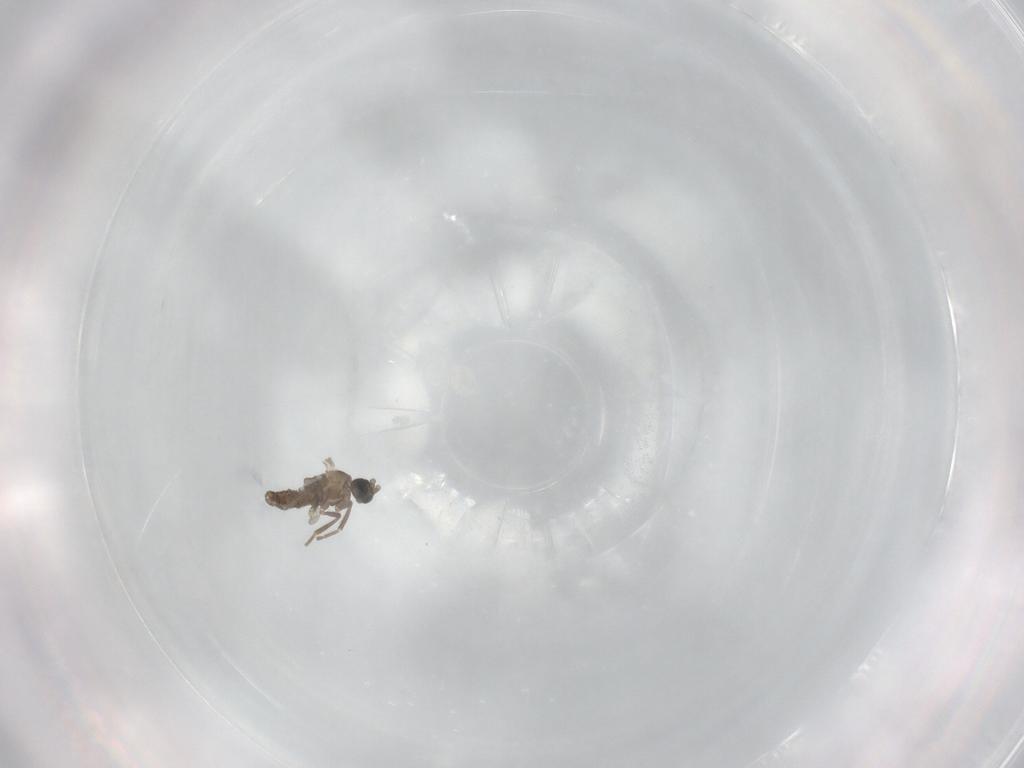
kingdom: Animalia
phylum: Arthropoda
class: Insecta
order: Diptera
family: Cecidomyiidae
